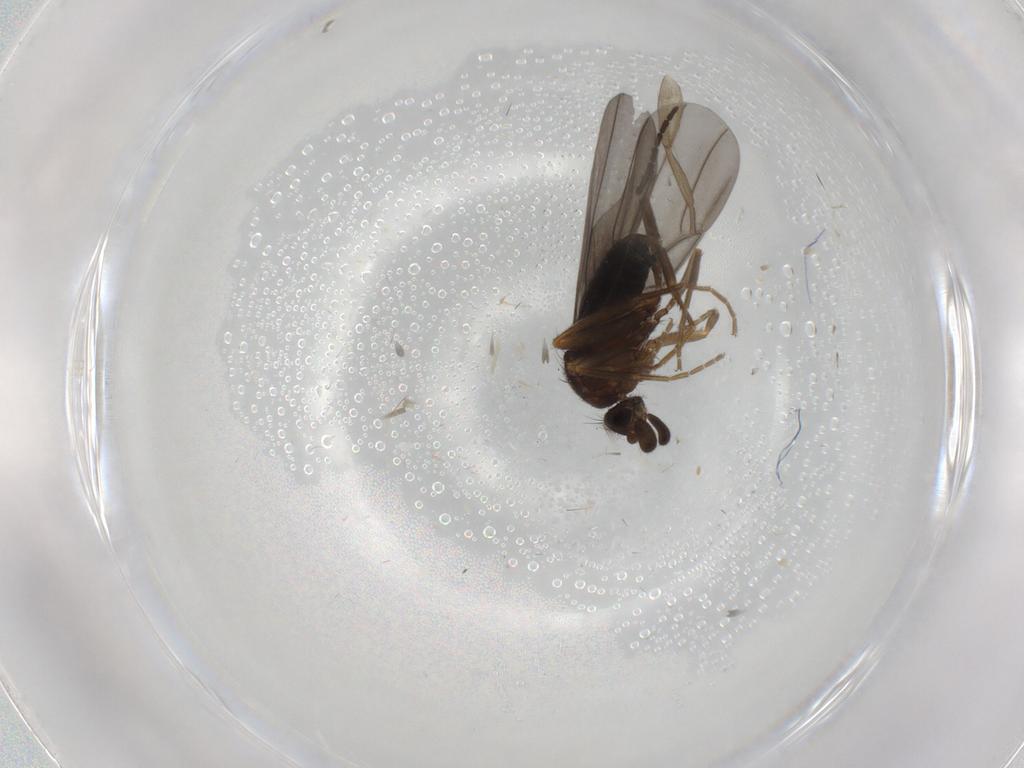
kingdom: Animalia
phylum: Arthropoda
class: Insecta
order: Diptera
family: Phoridae
